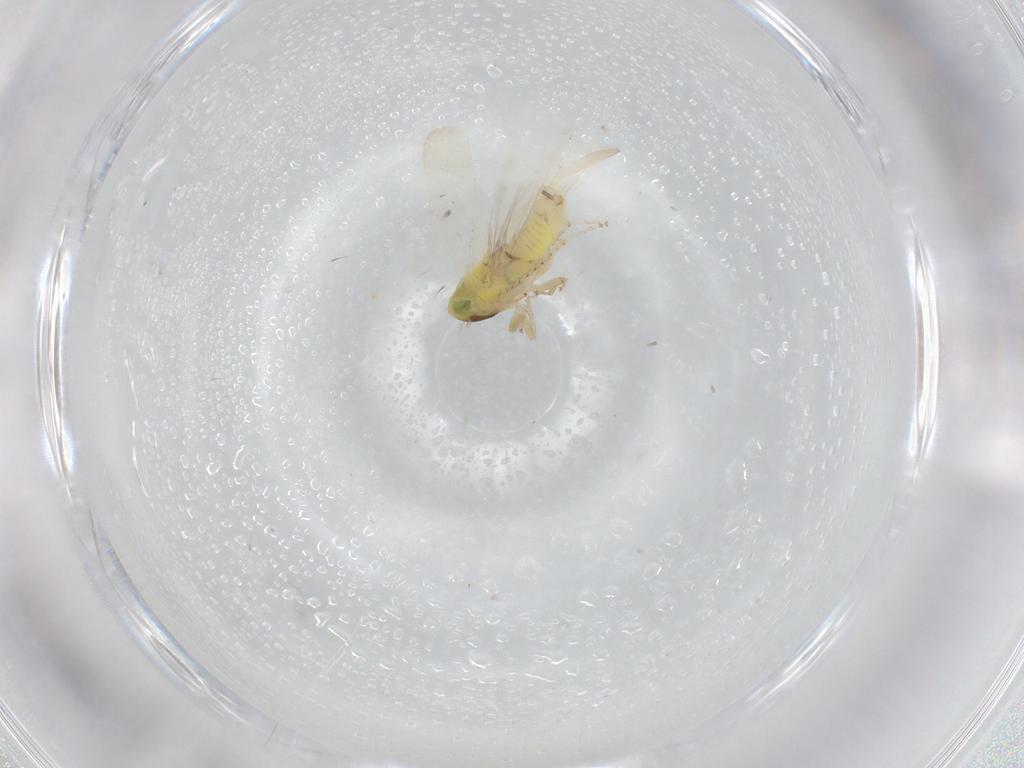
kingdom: Animalia
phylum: Arthropoda
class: Insecta
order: Hemiptera
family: Cicadellidae
